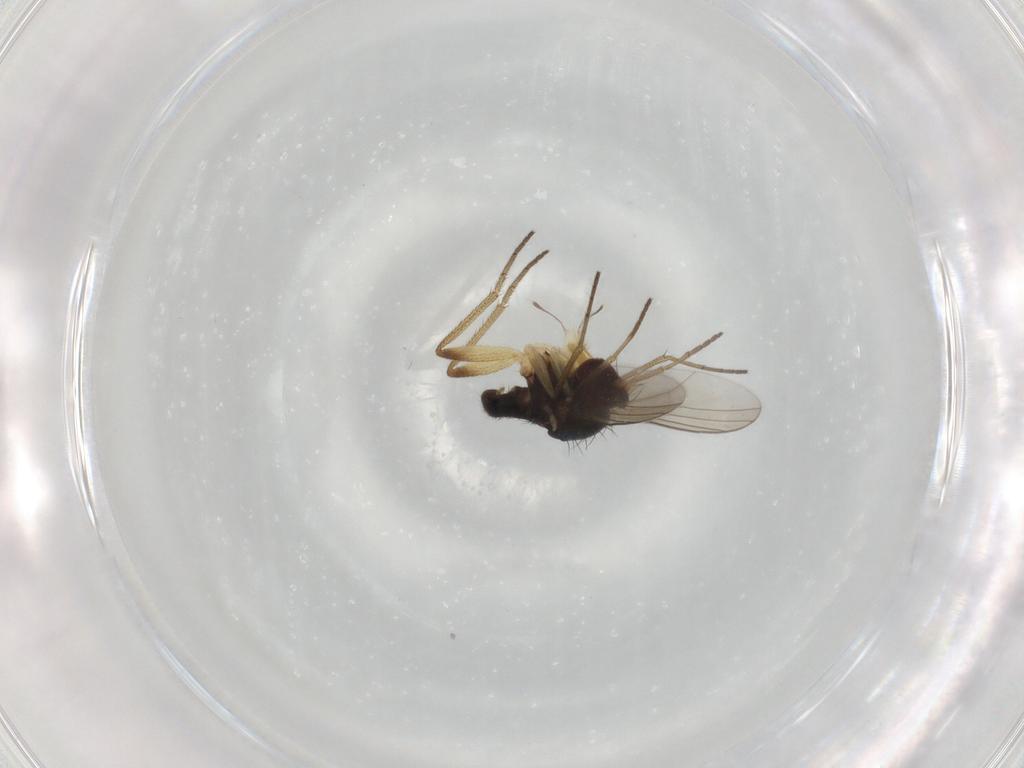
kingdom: Animalia
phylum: Arthropoda
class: Insecta
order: Diptera
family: Dolichopodidae
